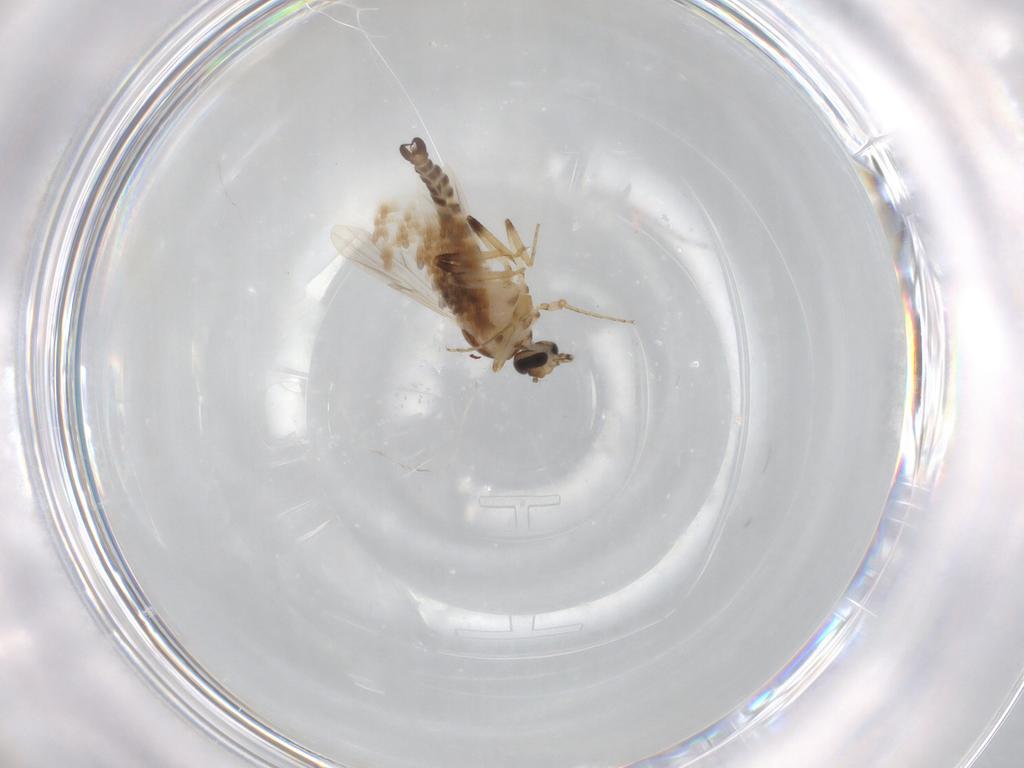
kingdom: Animalia
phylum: Arthropoda
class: Insecta
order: Diptera
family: Ceratopogonidae
